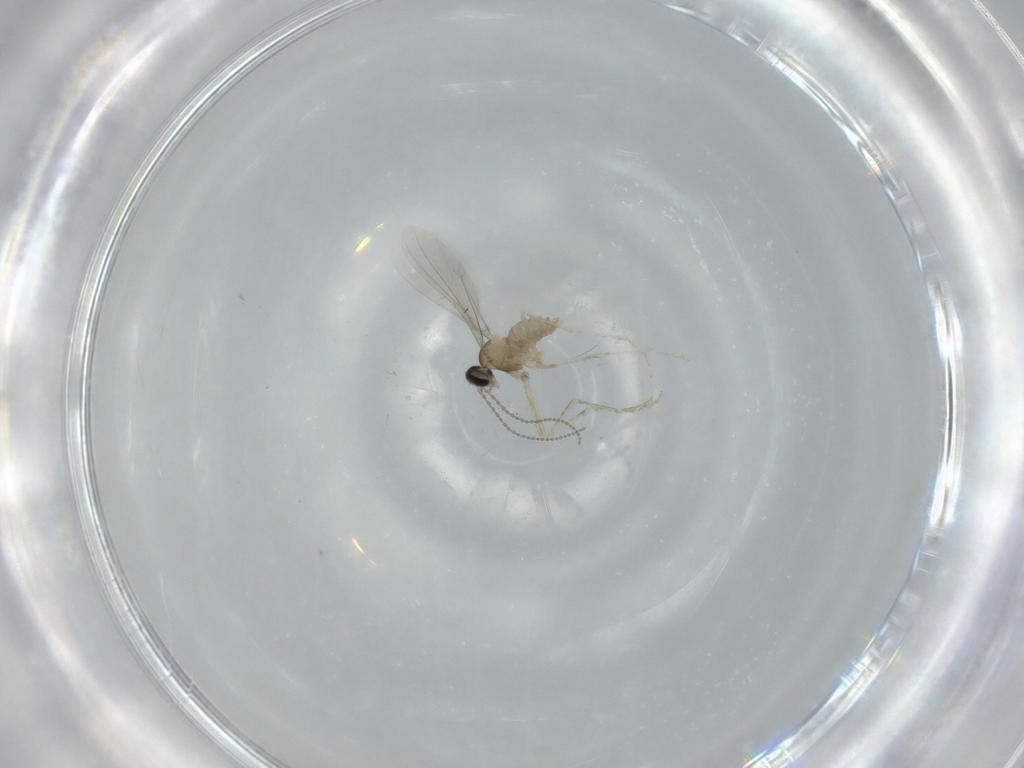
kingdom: Animalia
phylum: Arthropoda
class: Insecta
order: Diptera
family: Cecidomyiidae
